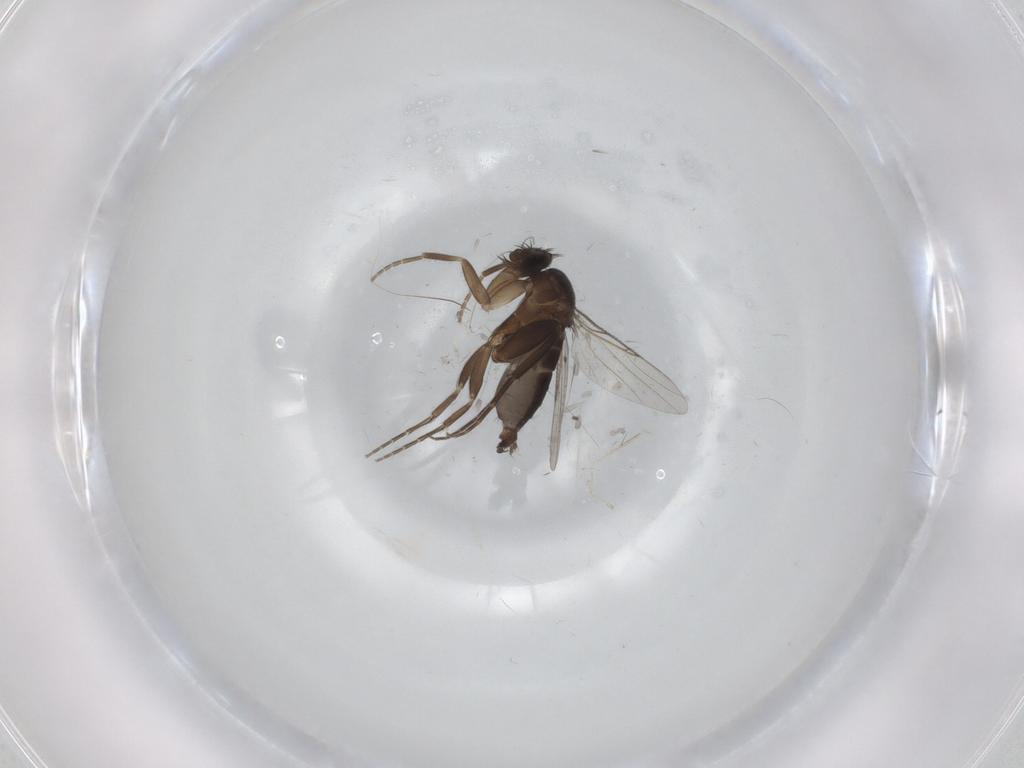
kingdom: Animalia
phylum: Arthropoda
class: Insecta
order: Diptera
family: Phoridae
